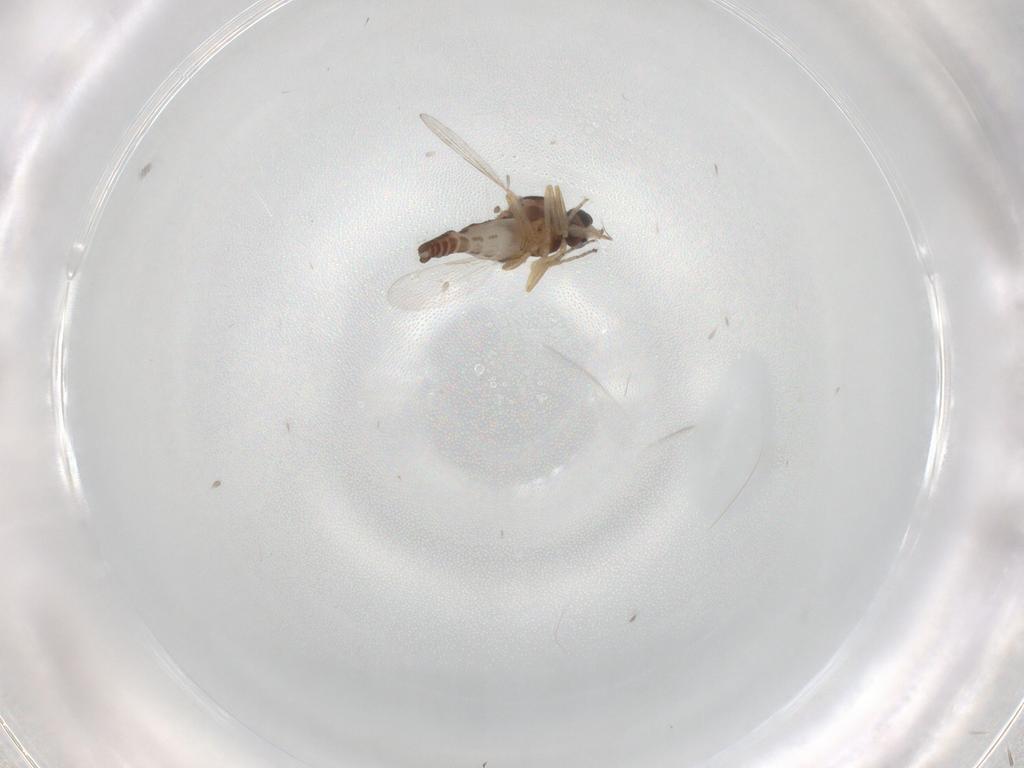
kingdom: Animalia
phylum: Arthropoda
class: Insecta
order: Diptera
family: Ceratopogonidae
